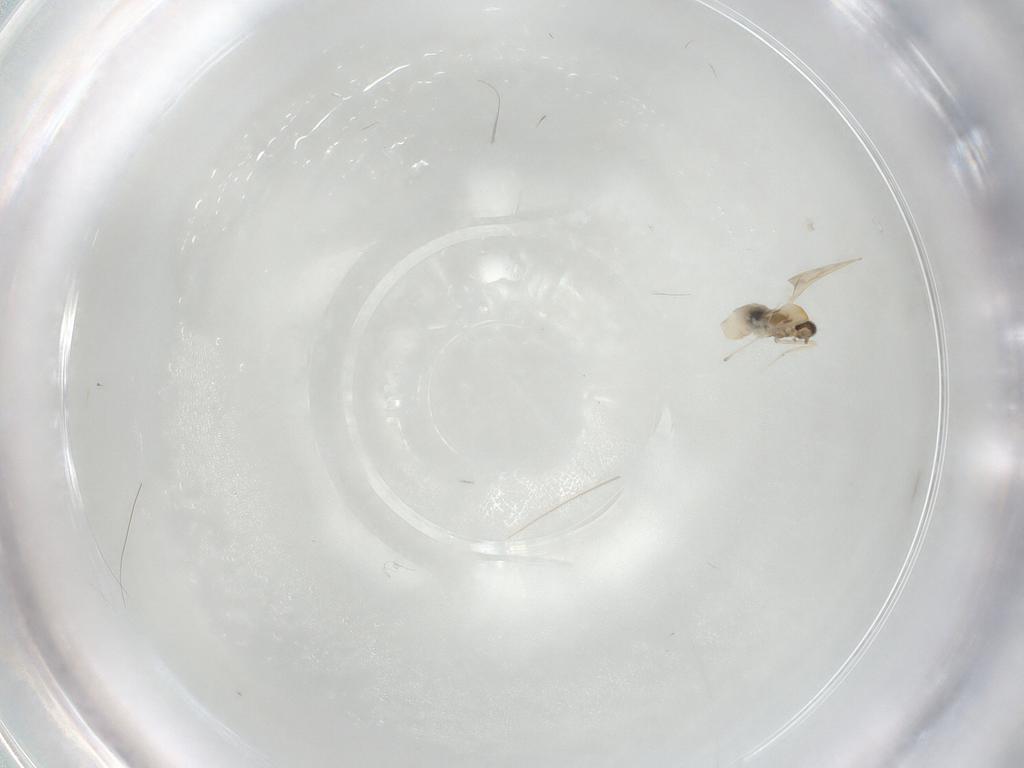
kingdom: Animalia
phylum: Arthropoda
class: Insecta
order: Diptera
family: Cecidomyiidae
